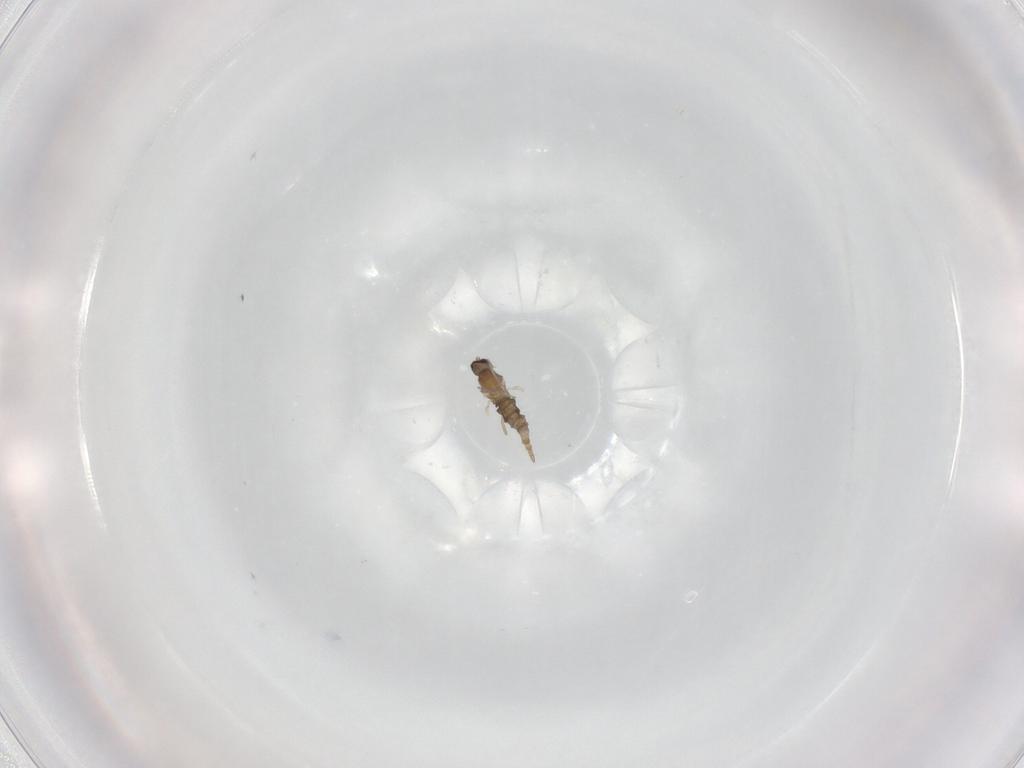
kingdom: Animalia
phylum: Arthropoda
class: Insecta
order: Diptera
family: Cecidomyiidae
